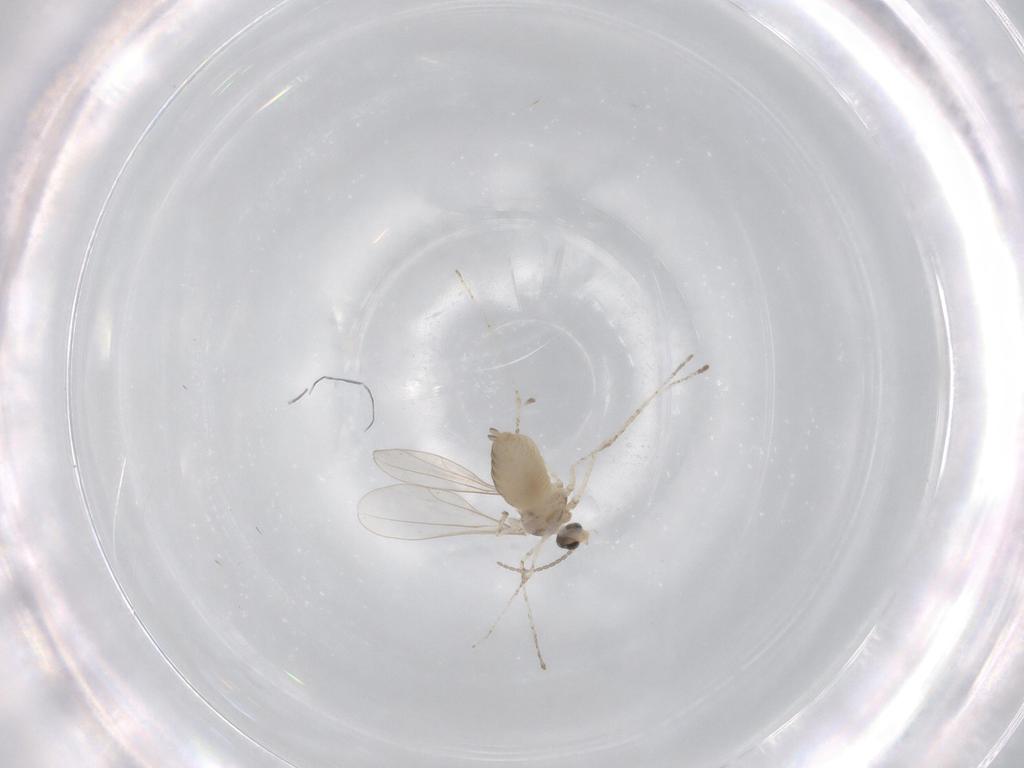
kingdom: Animalia
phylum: Arthropoda
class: Insecta
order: Diptera
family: Cecidomyiidae
